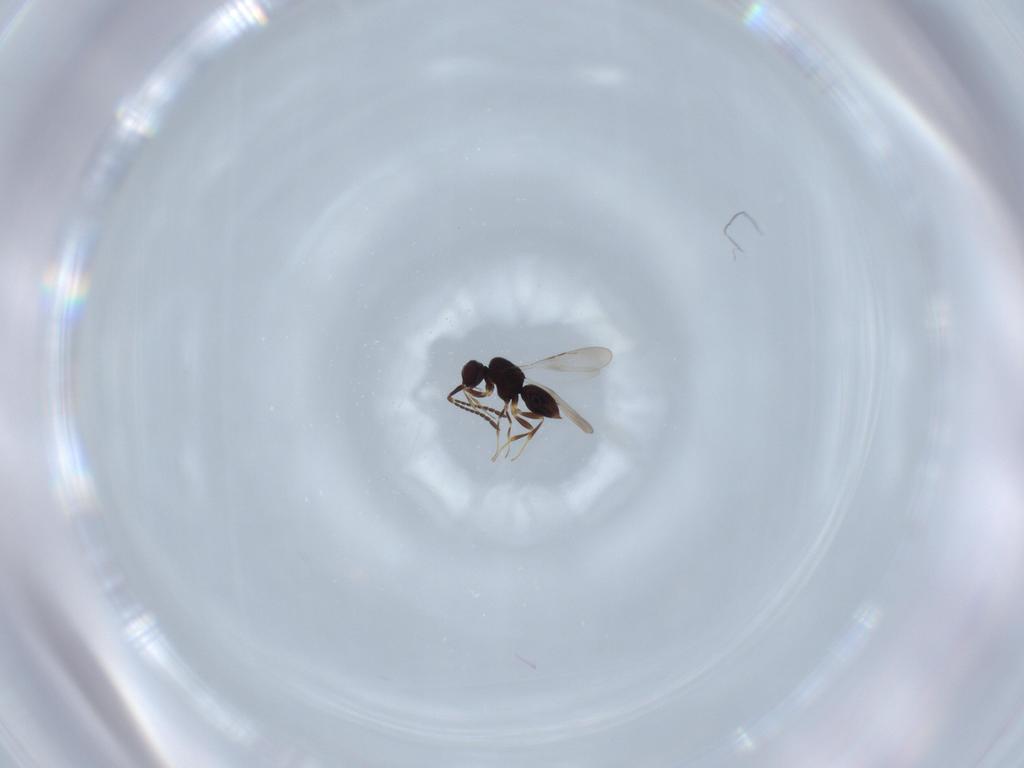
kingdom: Animalia
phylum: Arthropoda
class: Insecta
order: Hymenoptera
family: Ceraphronidae
